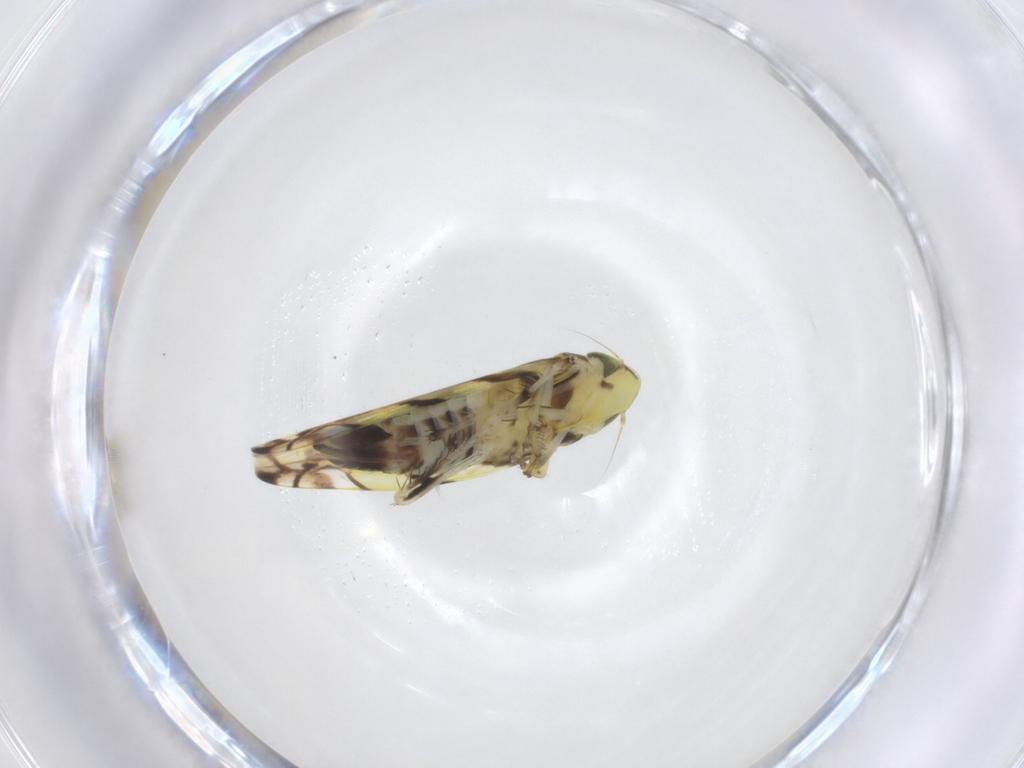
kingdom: Animalia
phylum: Arthropoda
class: Insecta
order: Hemiptera
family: Cicadellidae
